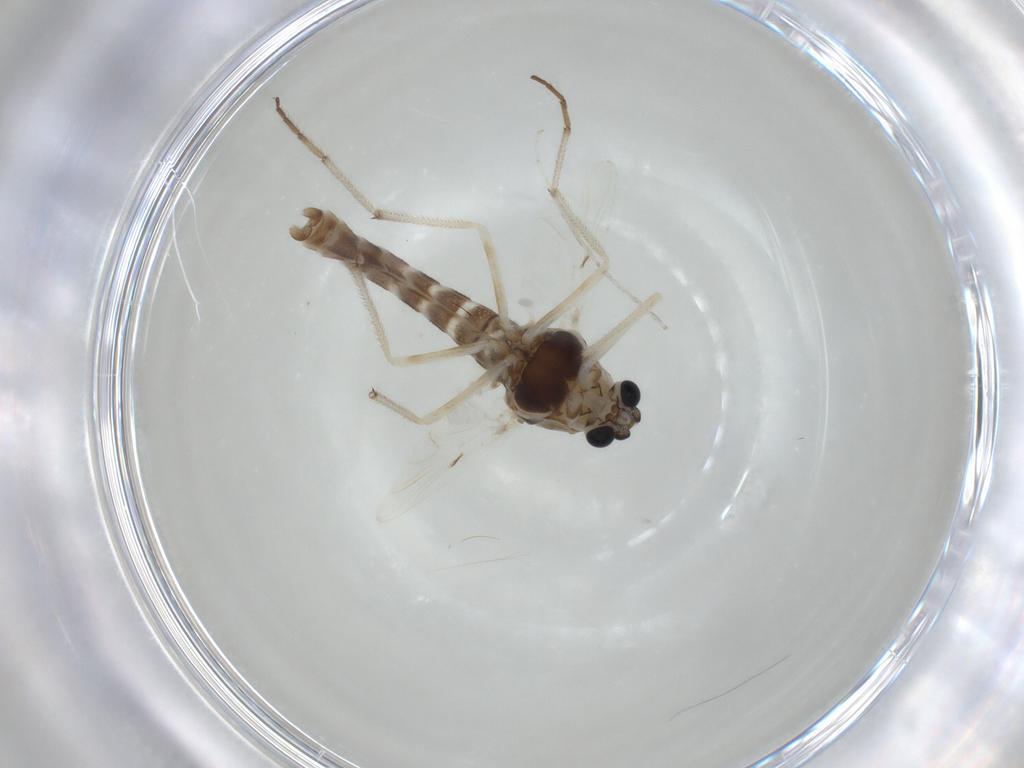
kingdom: Animalia
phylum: Arthropoda
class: Insecta
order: Diptera
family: Chironomidae
